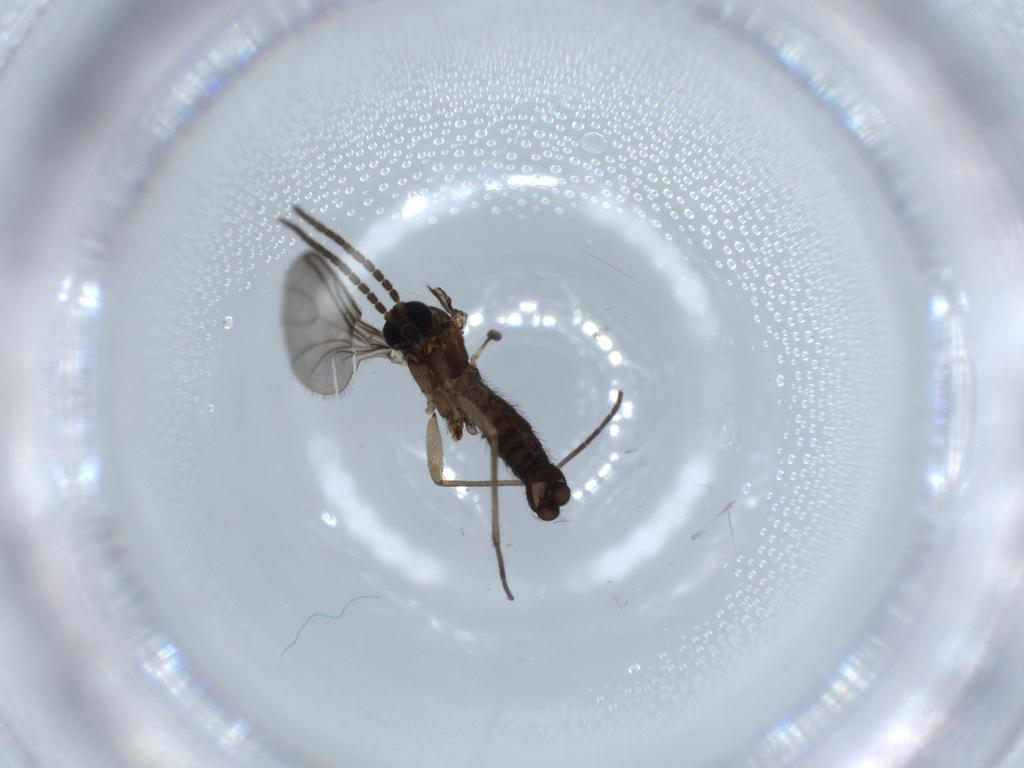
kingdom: Animalia
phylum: Arthropoda
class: Insecta
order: Diptera
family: Sciaridae
